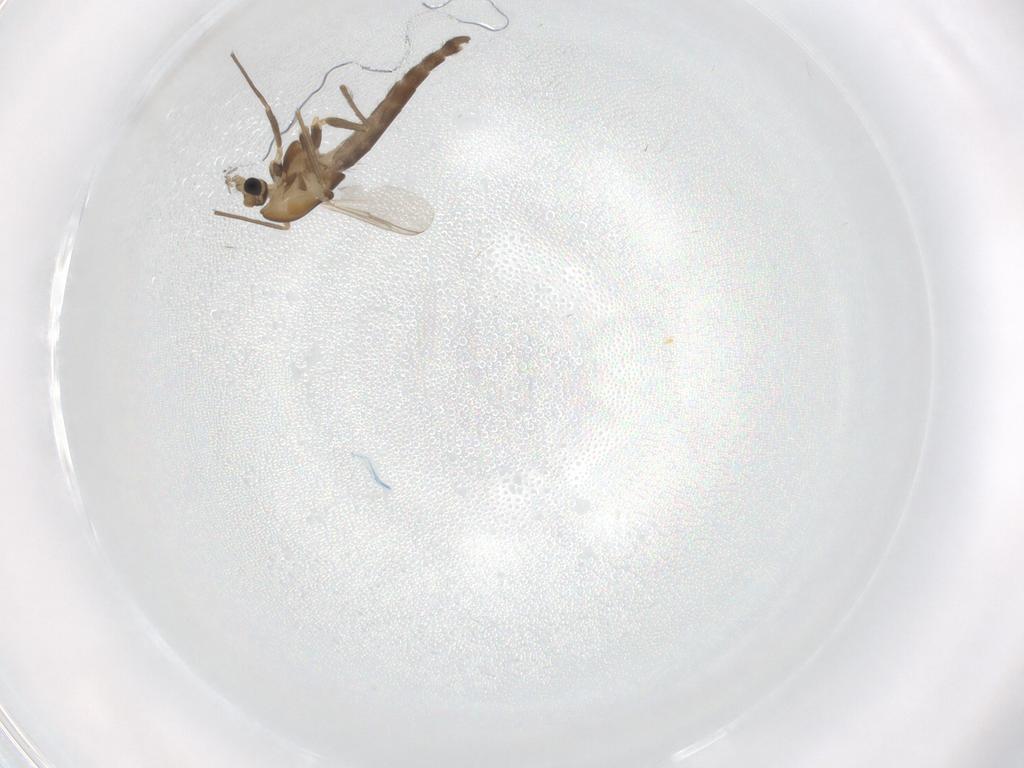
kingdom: Animalia
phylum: Arthropoda
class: Insecta
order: Diptera
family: Chironomidae
